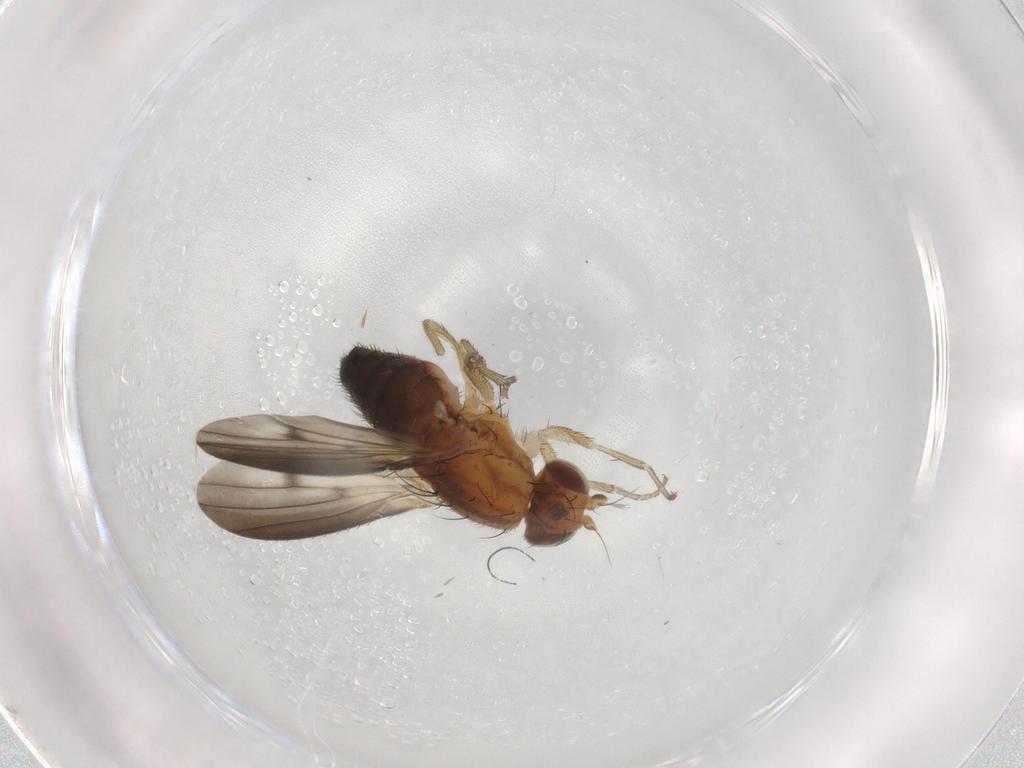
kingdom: Animalia
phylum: Arthropoda
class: Insecta
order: Diptera
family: Heleomyzidae
